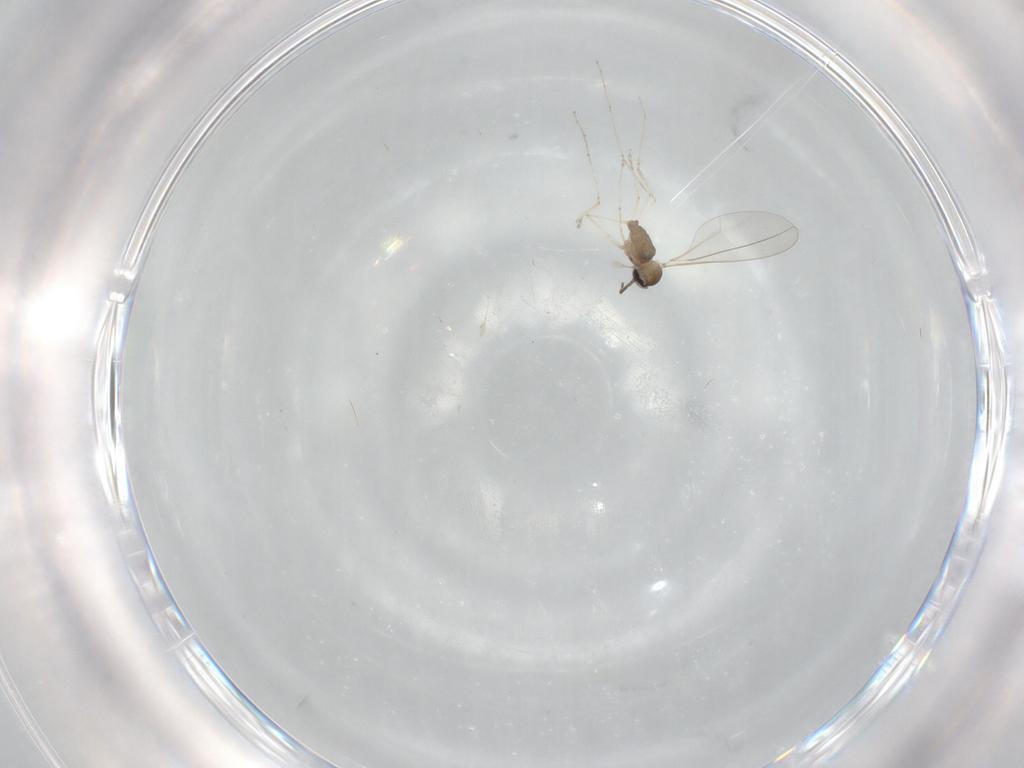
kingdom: Animalia
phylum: Arthropoda
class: Insecta
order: Diptera
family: Cecidomyiidae
